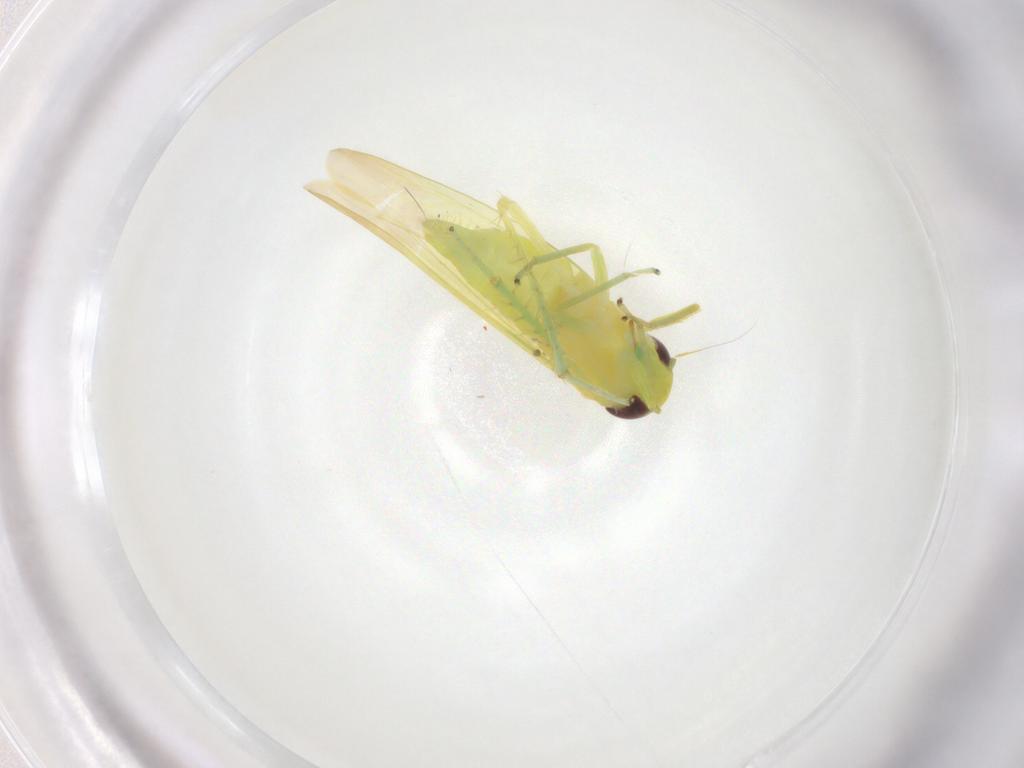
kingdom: Animalia
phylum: Arthropoda
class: Insecta
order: Hemiptera
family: Cicadellidae
